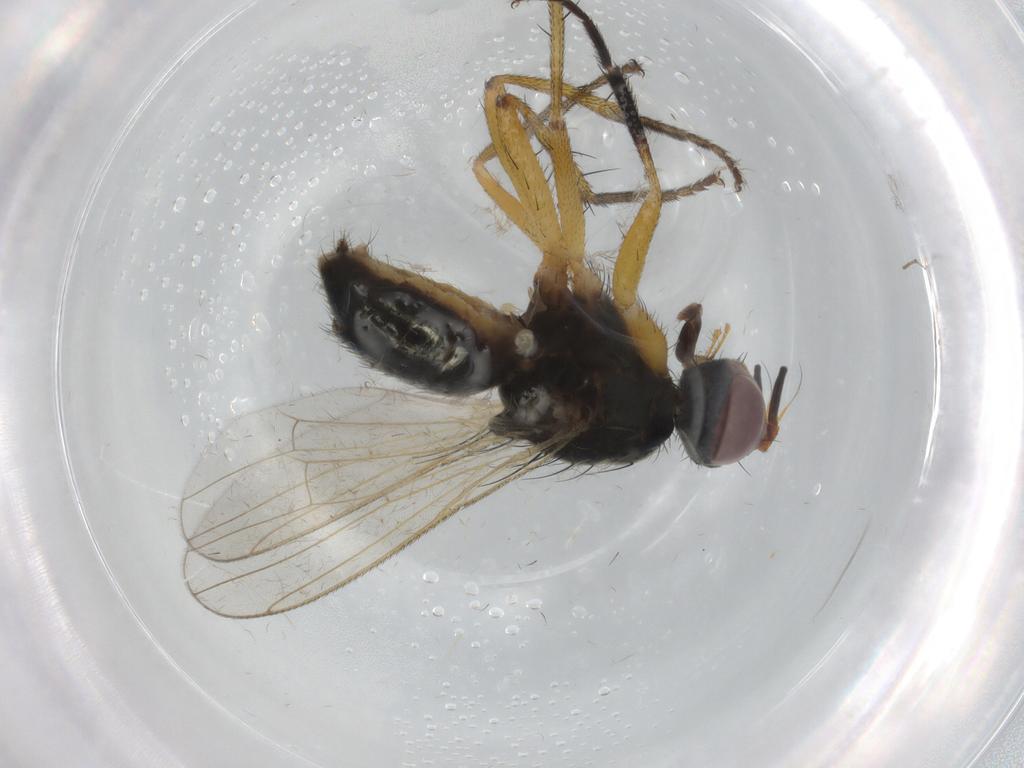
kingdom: Animalia
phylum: Arthropoda
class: Insecta
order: Diptera
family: Muscidae
